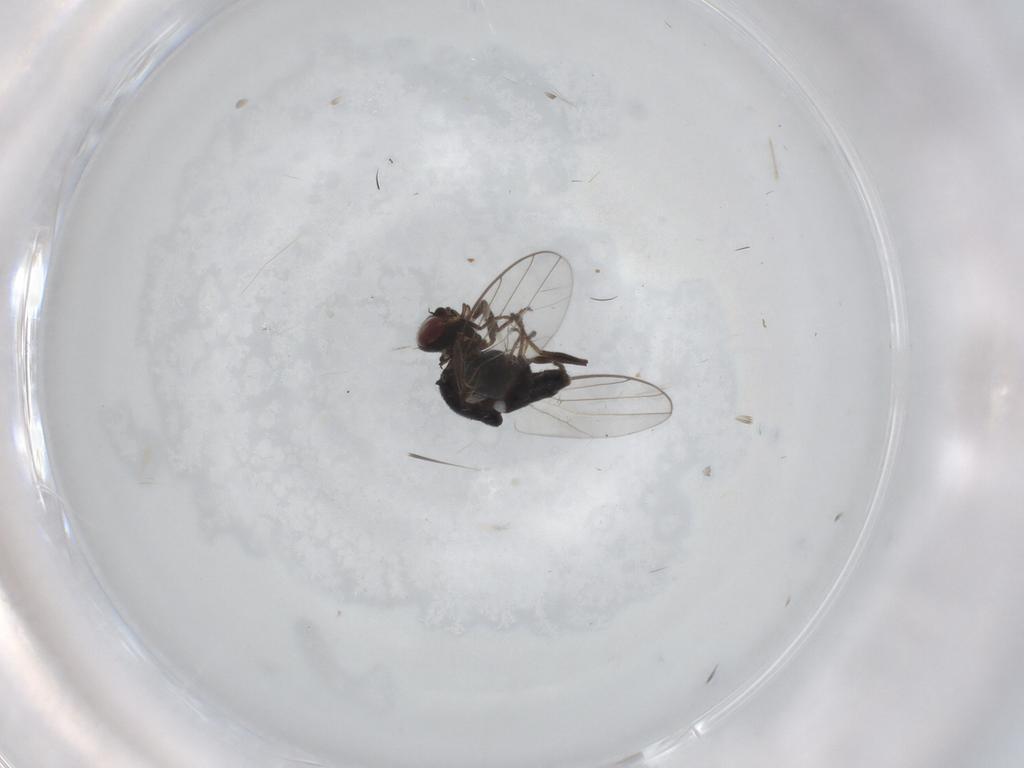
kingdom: Animalia
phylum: Arthropoda
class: Insecta
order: Diptera
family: Chloropidae
